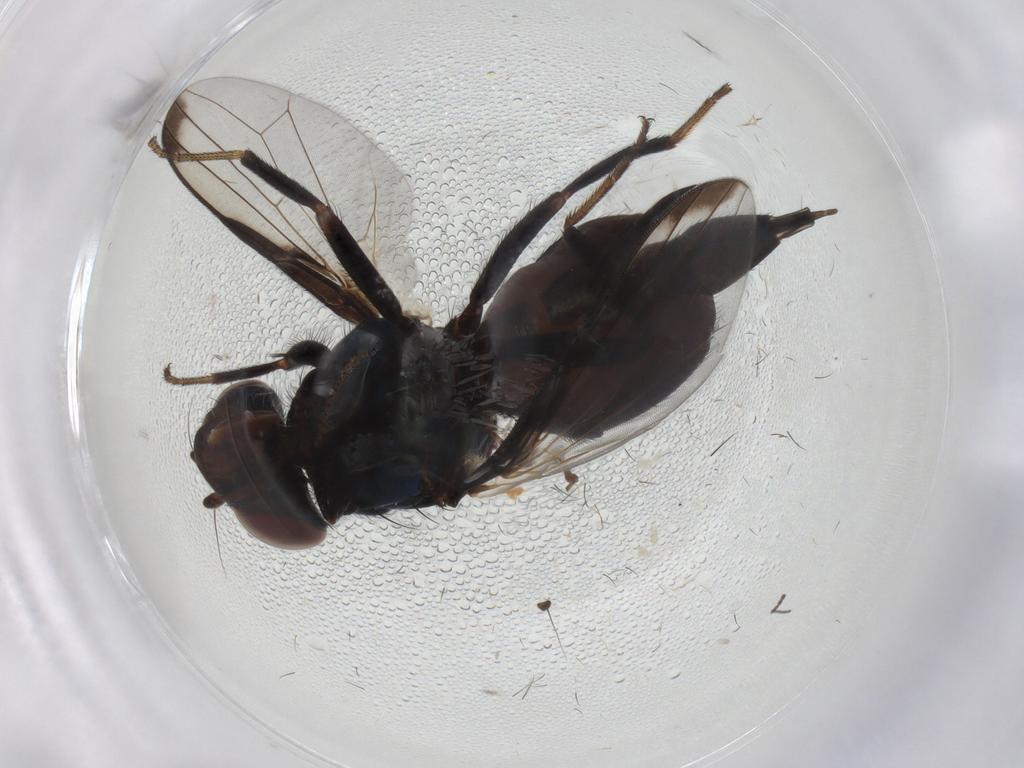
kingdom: Animalia
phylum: Arthropoda
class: Insecta
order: Diptera
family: Ulidiidae
